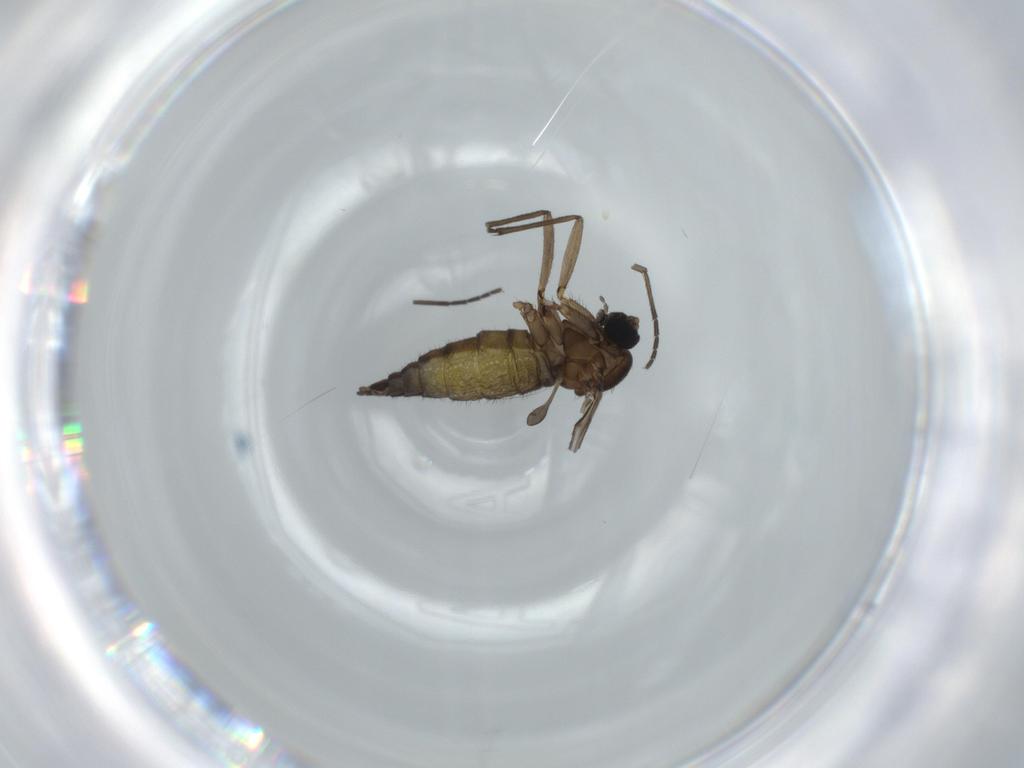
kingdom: Animalia
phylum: Arthropoda
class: Insecta
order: Diptera
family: Sciaridae
